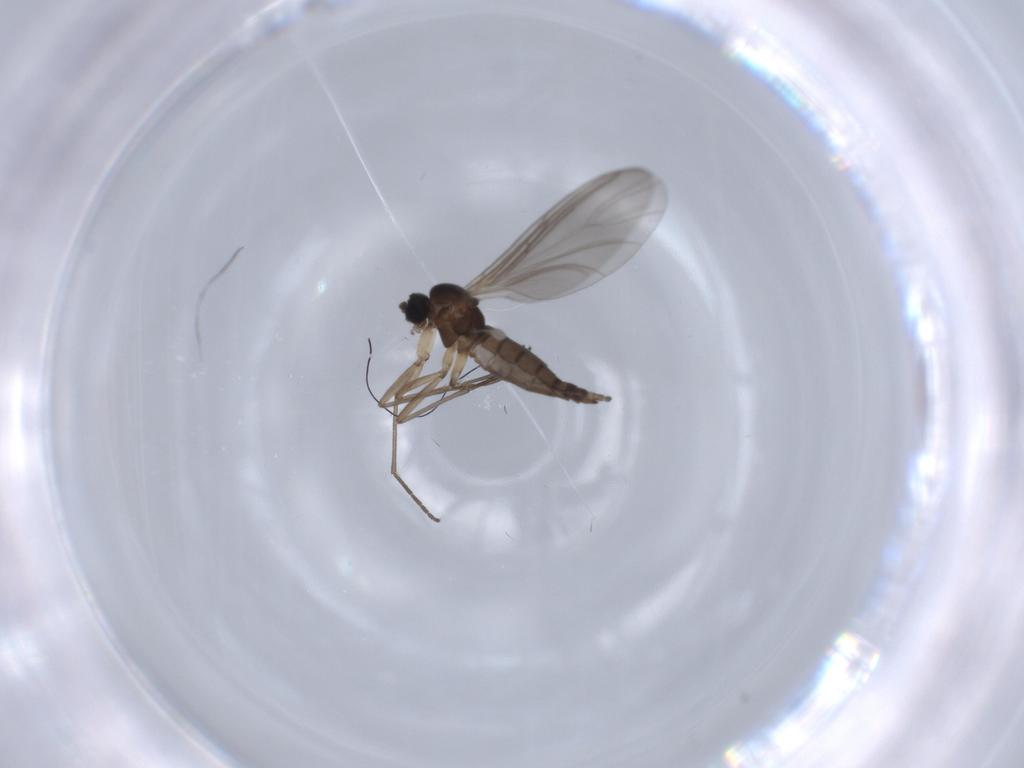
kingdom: Animalia
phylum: Arthropoda
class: Insecta
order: Diptera
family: Sciaridae
